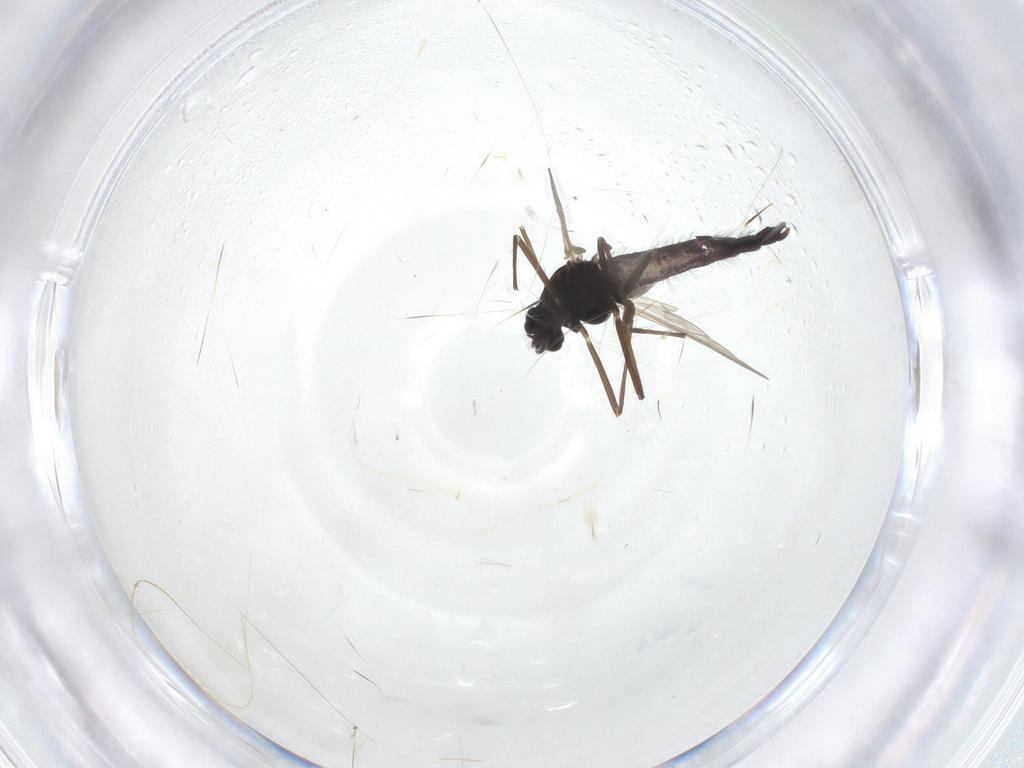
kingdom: Animalia
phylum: Arthropoda
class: Insecta
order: Diptera
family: Chironomidae
